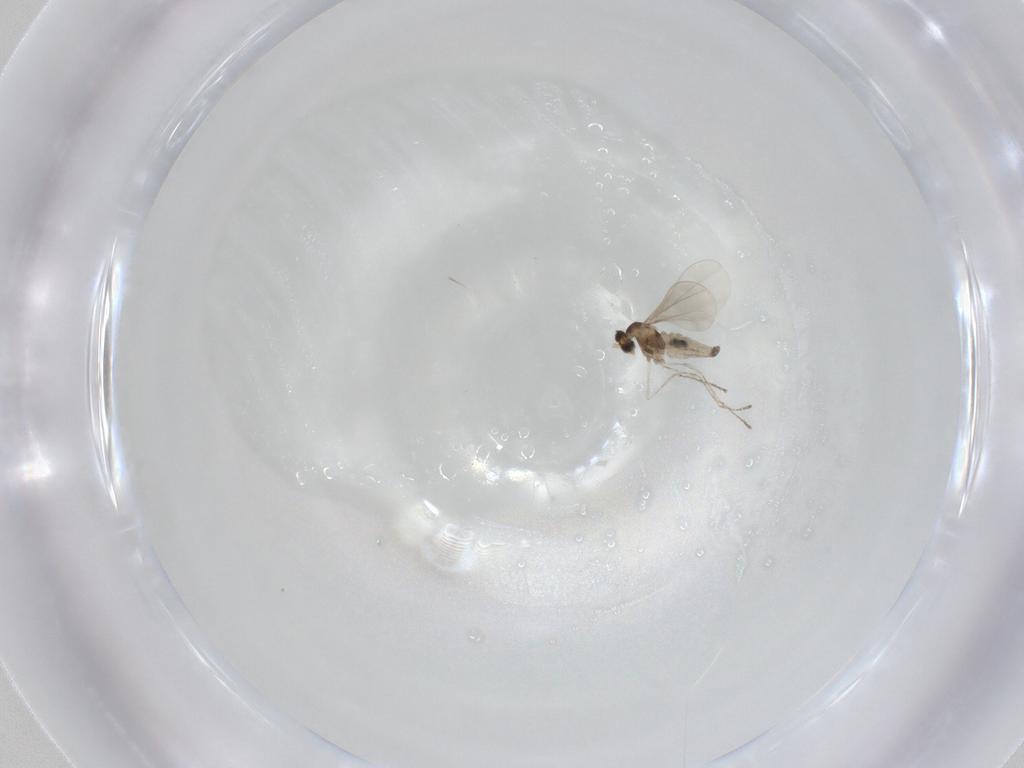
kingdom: Animalia
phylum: Arthropoda
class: Insecta
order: Diptera
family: Cecidomyiidae
